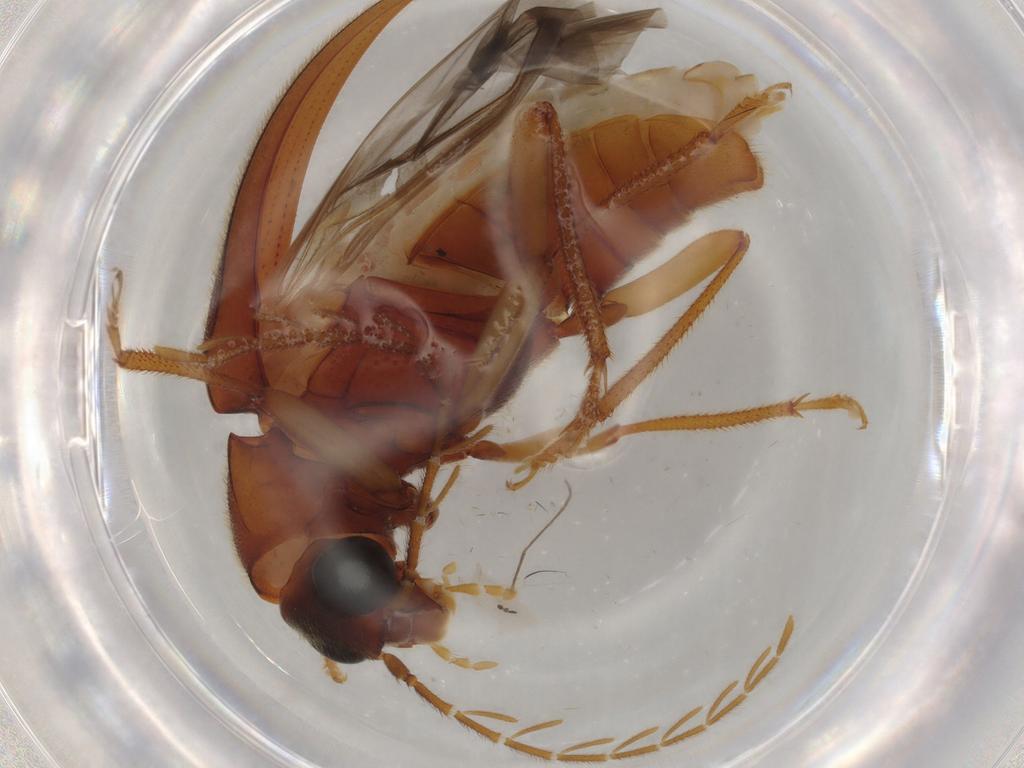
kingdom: Animalia
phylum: Arthropoda
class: Insecta
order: Coleoptera
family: Ptilodactylidae
